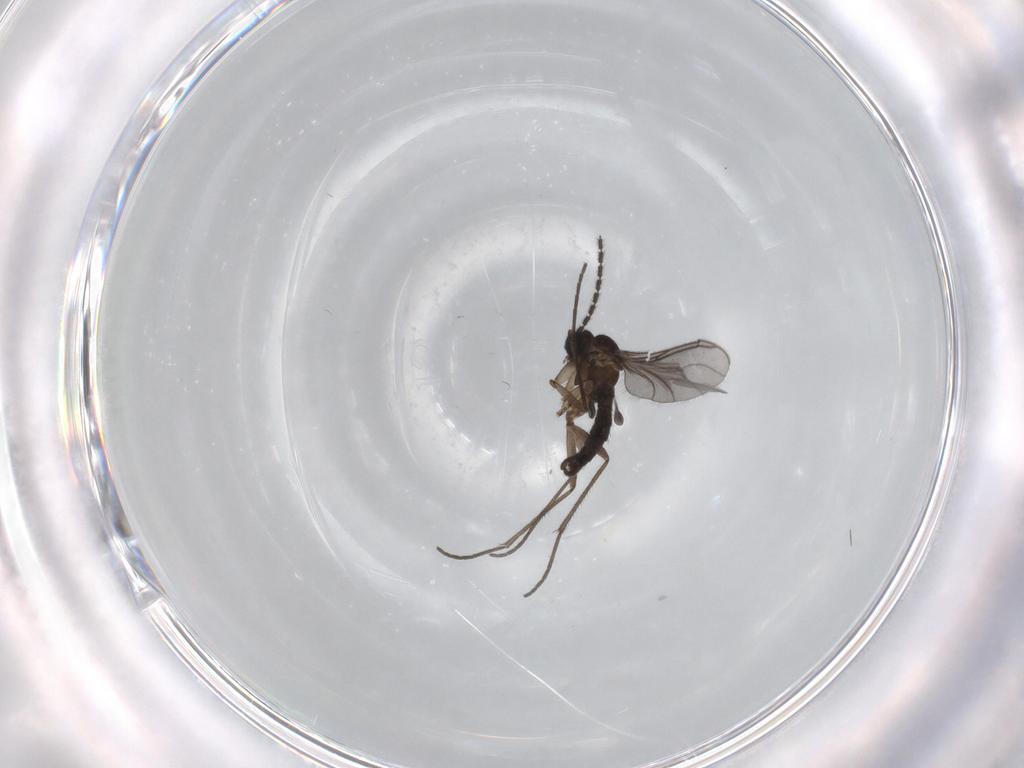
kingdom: Animalia
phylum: Arthropoda
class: Insecta
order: Diptera
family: Sciaridae
